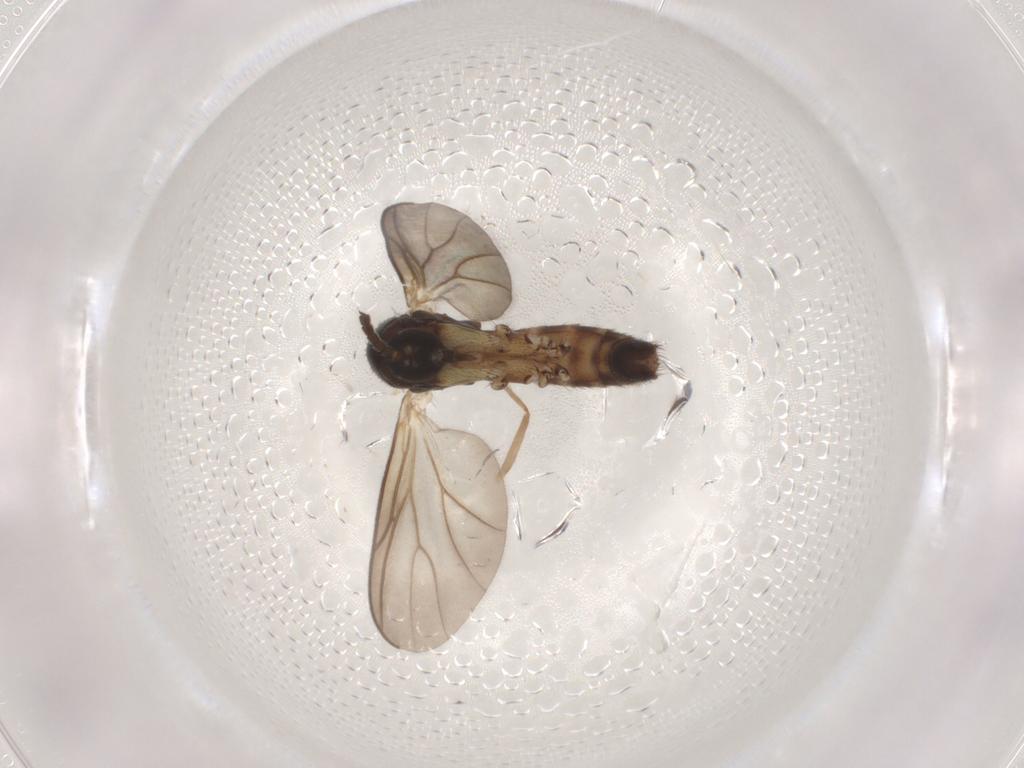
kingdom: Animalia
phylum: Arthropoda
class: Insecta
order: Diptera
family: Mycetophilidae
